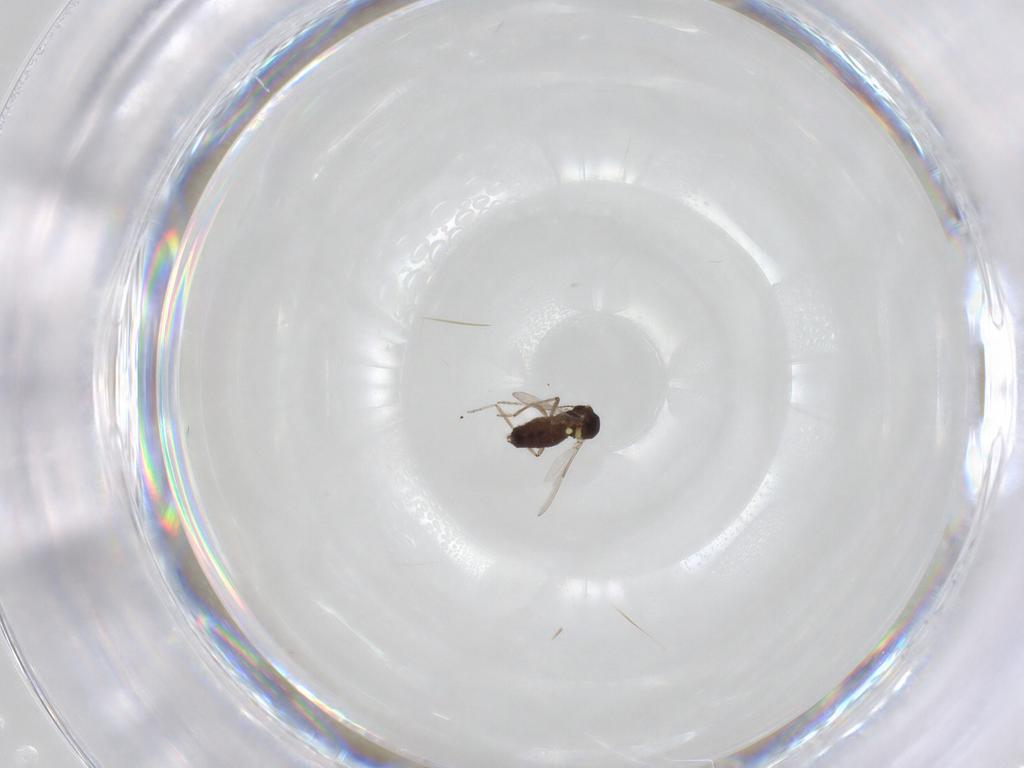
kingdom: Animalia
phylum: Arthropoda
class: Insecta
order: Diptera
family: Ceratopogonidae
